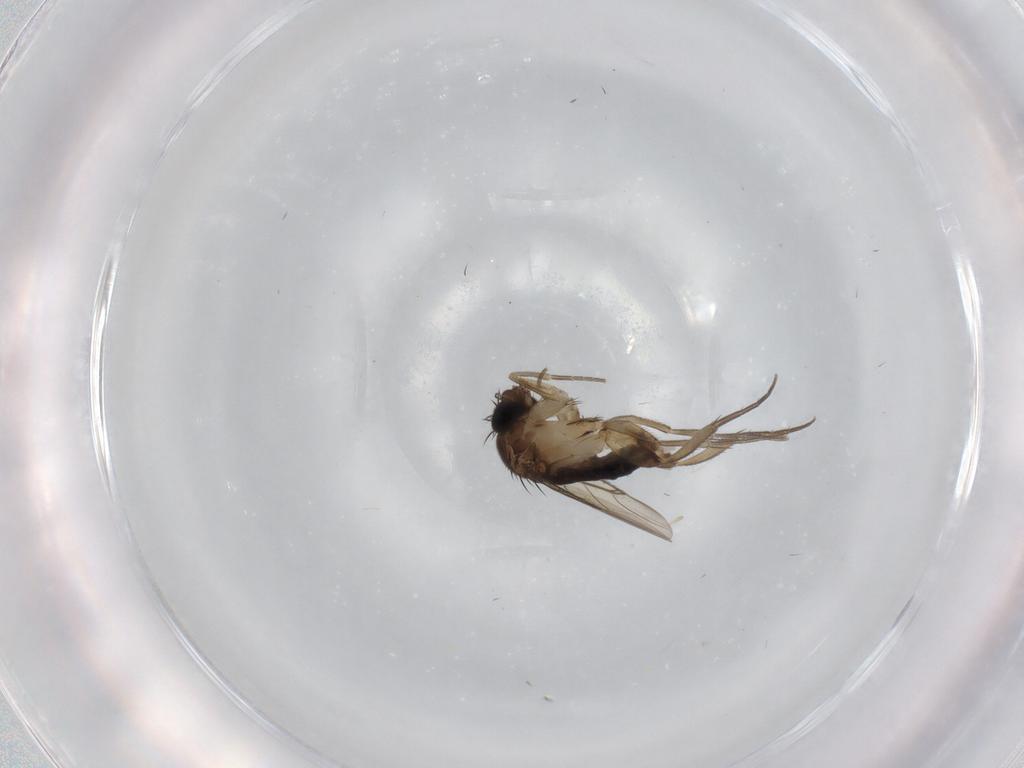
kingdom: Animalia
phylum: Arthropoda
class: Insecta
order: Diptera
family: Phoridae
